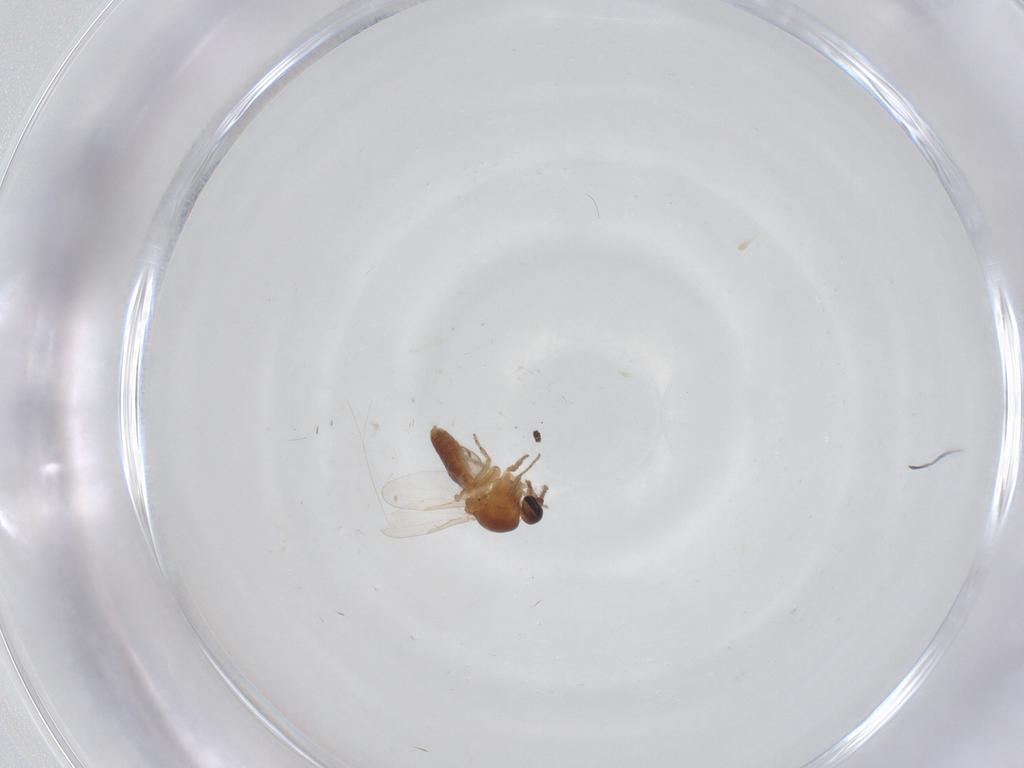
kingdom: Animalia
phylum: Arthropoda
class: Insecta
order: Diptera
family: Ceratopogonidae
